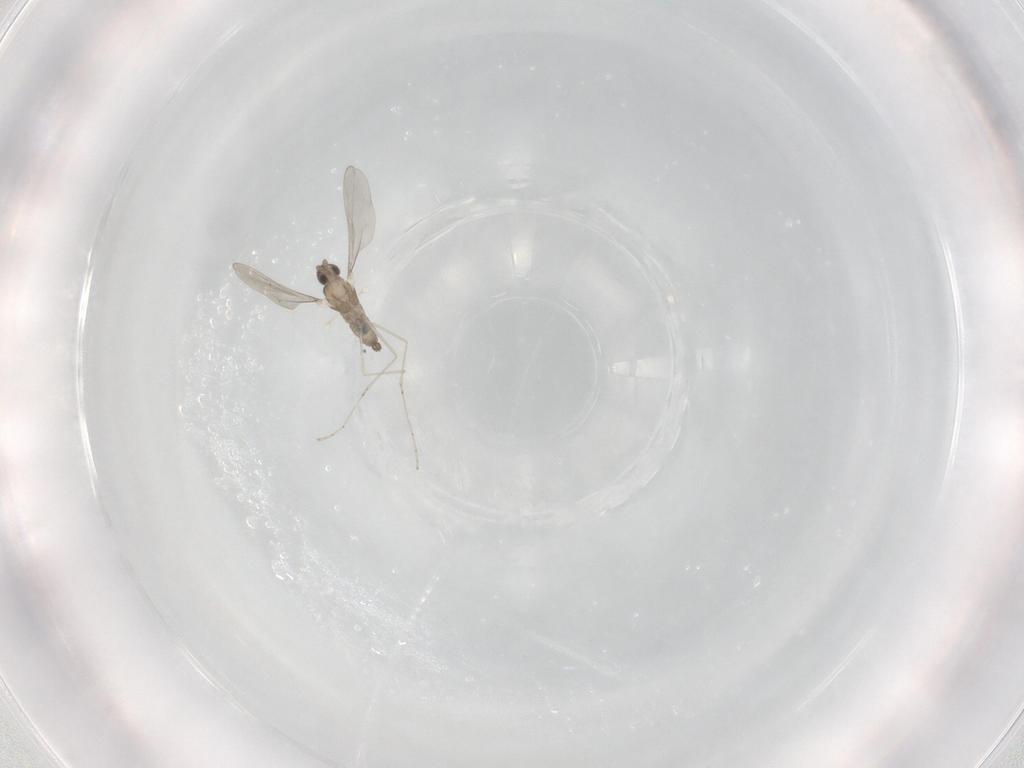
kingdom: Animalia
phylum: Arthropoda
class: Insecta
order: Diptera
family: Cecidomyiidae
